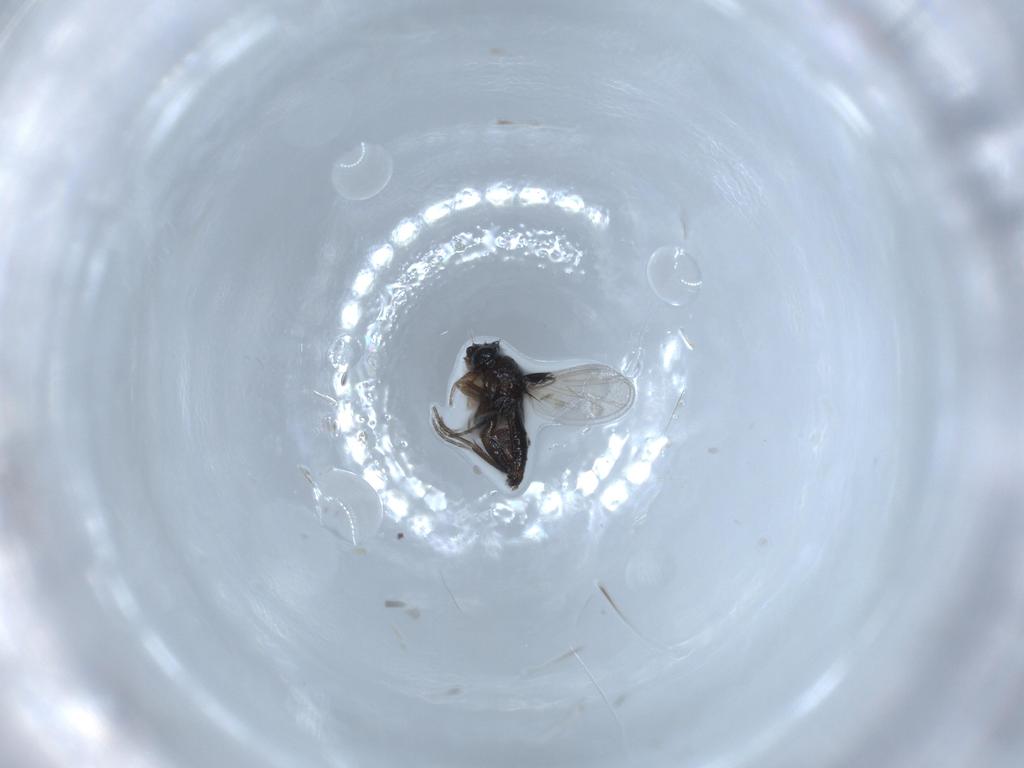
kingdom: Animalia
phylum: Arthropoda
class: Insecta
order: Diptera
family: Phoridae
